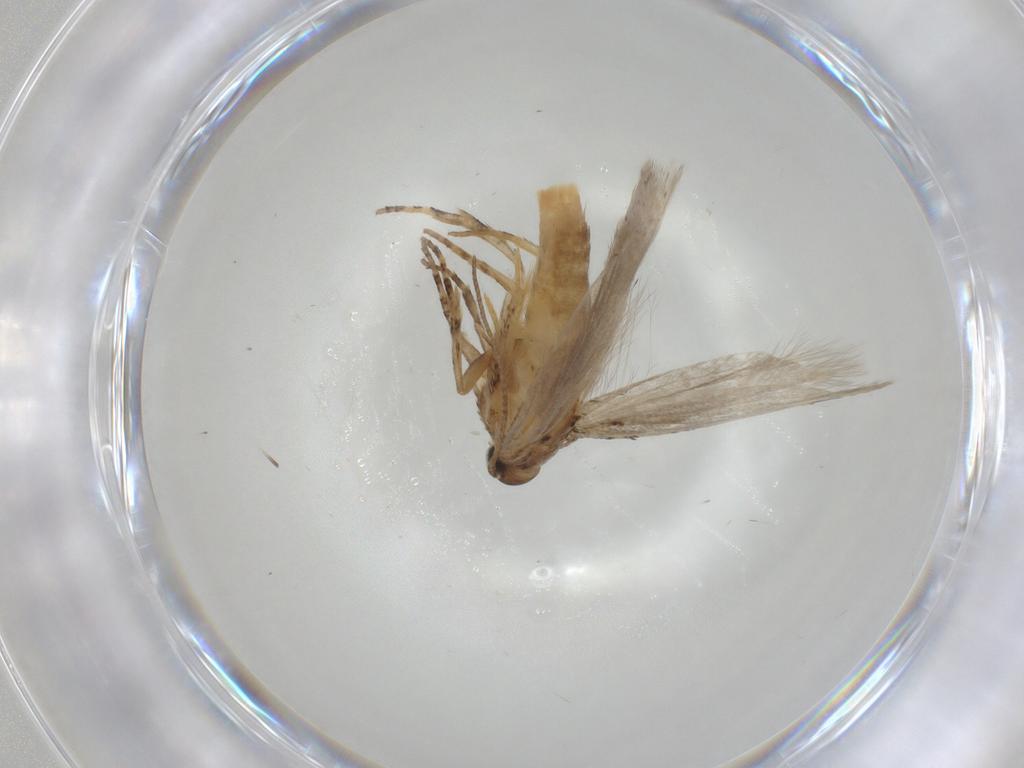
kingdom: Animalia
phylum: Arthropoda
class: Insecta
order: Lepidoptera
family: Gelechiidae
